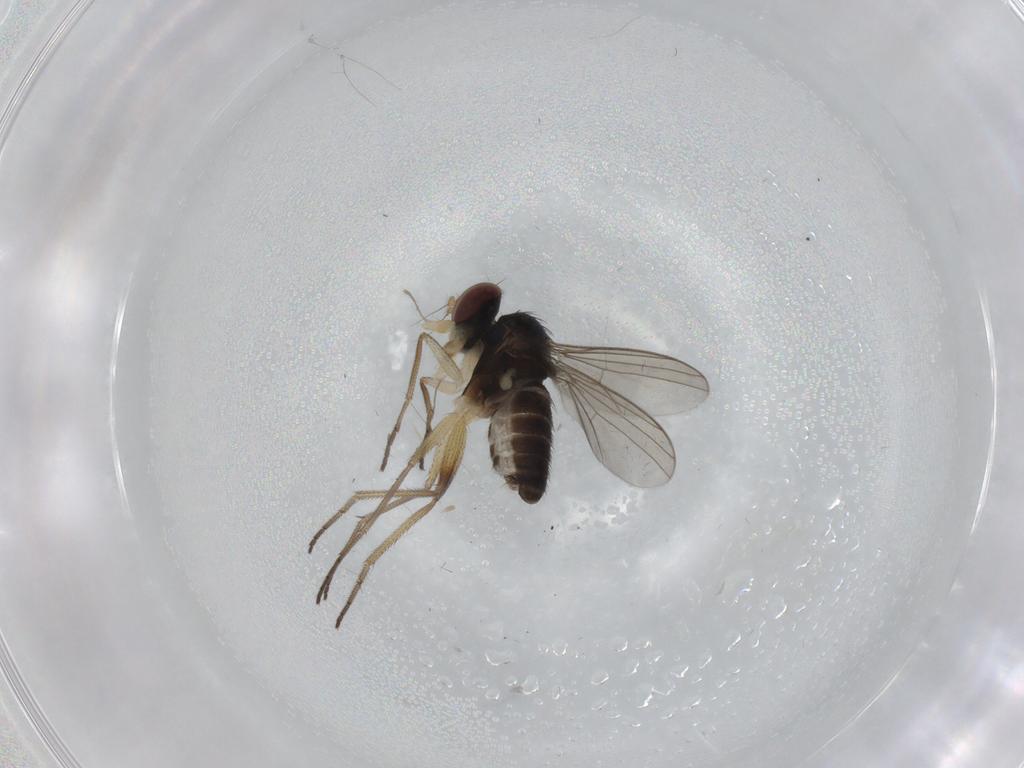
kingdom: Animalia
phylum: Arthropoda
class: Insecta
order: Diptera
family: Dolichopodidae
